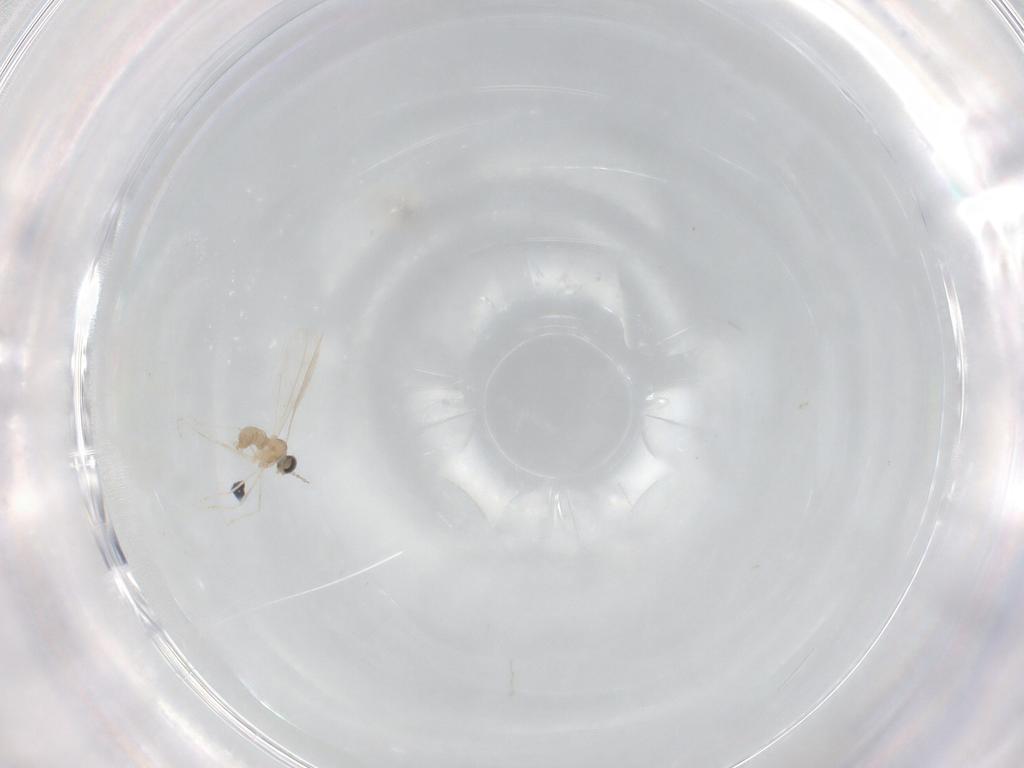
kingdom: Animalia
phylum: Arthropoda
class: Insecta
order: Diptera
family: Cecidomyiidae
